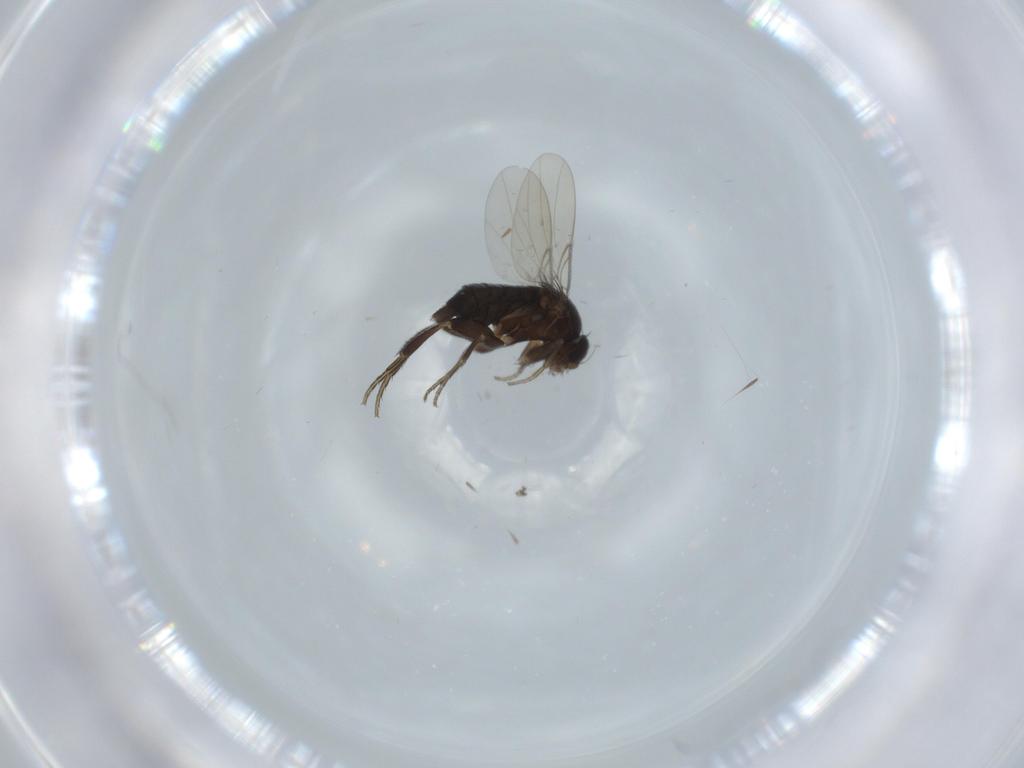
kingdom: Animalia
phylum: Arthropoda
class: Insecta
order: Diptera
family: Phoridae
